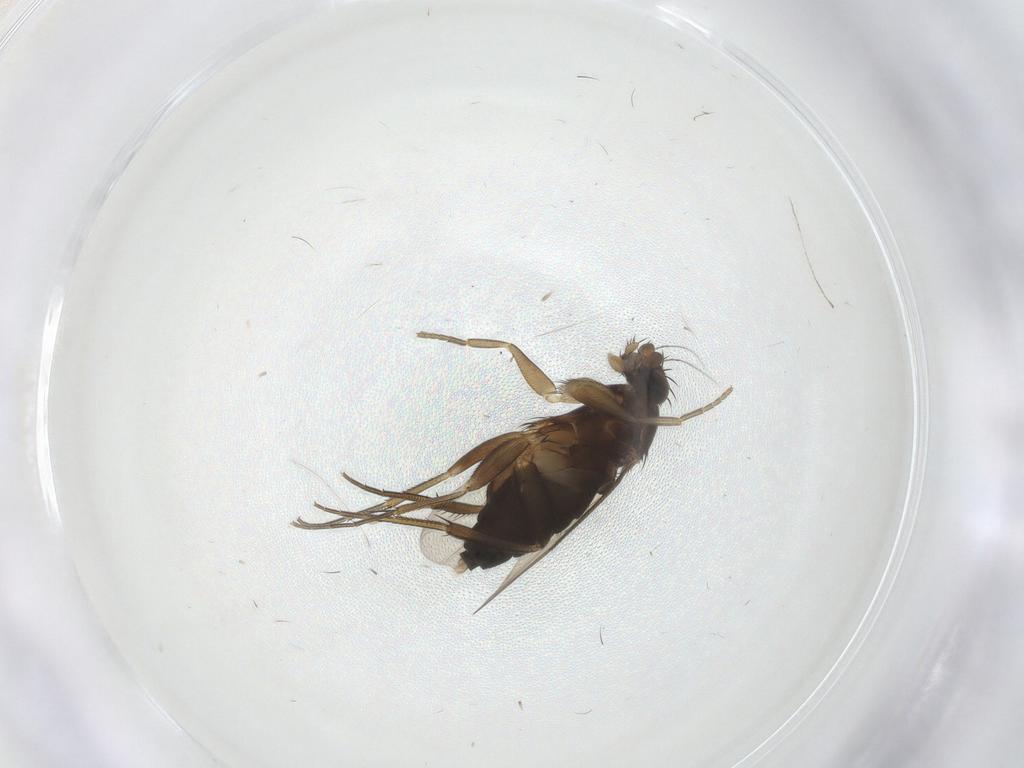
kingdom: Animalia
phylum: Arthropoda
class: Insecta
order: Diptera
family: Phoridae
